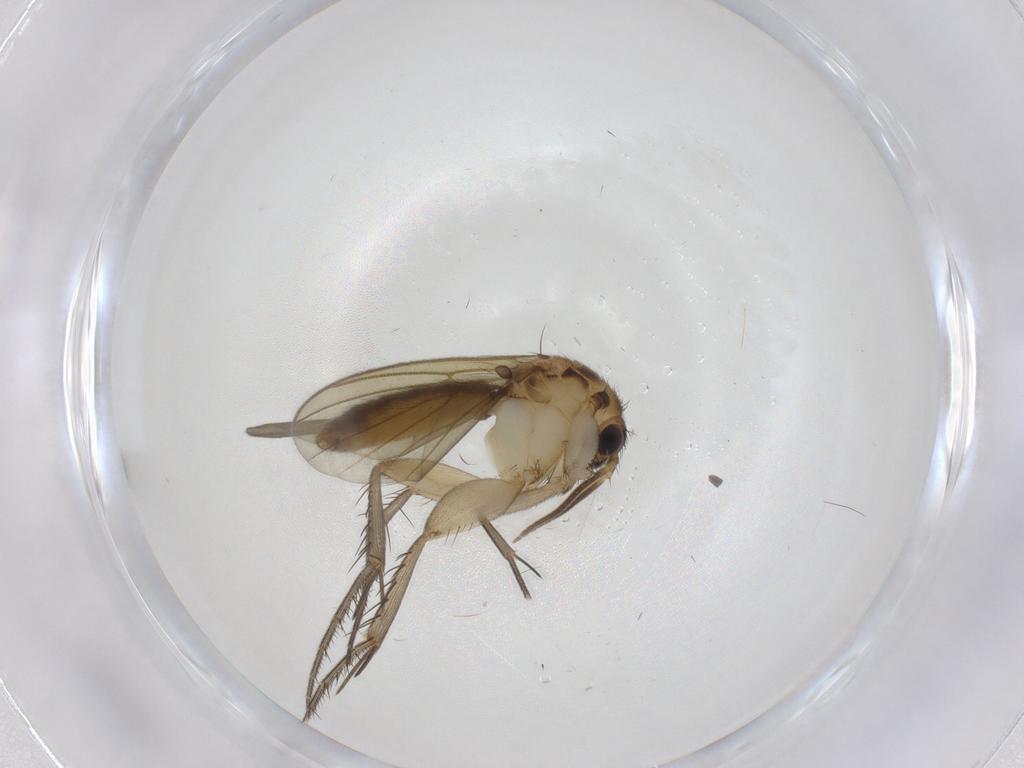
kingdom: Animalia
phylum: Arthropoda
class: Insecta
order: Diptera
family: Mycetophilidae
